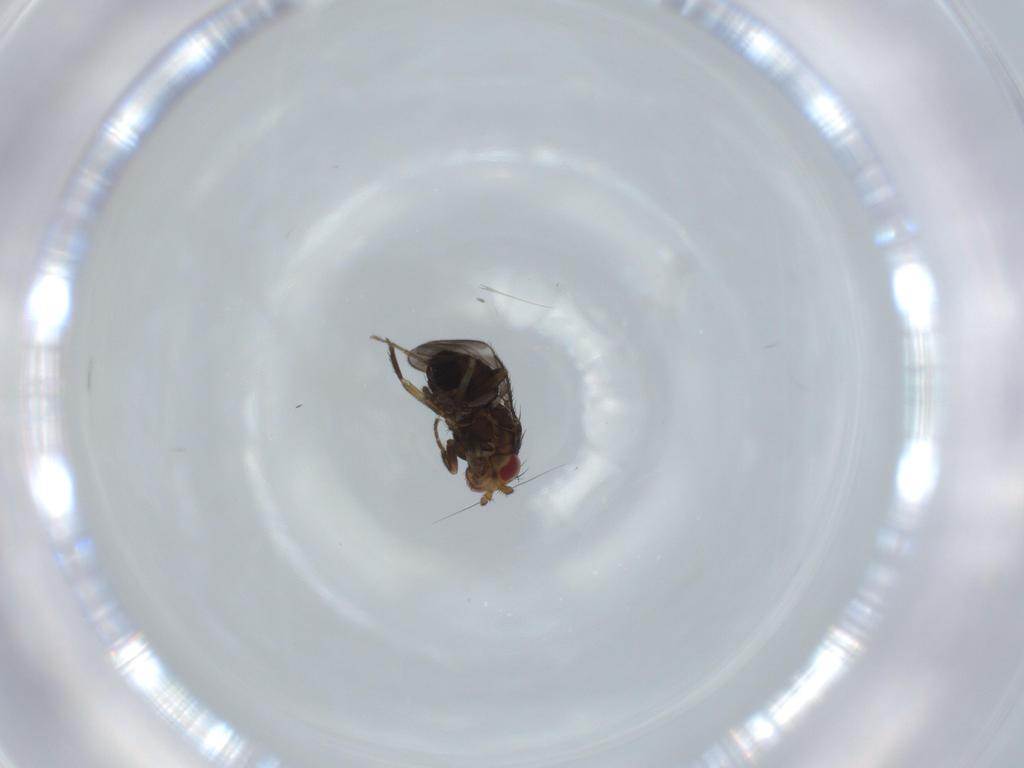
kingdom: Animalia
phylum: Arthropoda
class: Insecta
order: Diptera
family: Sphaeroceridae
